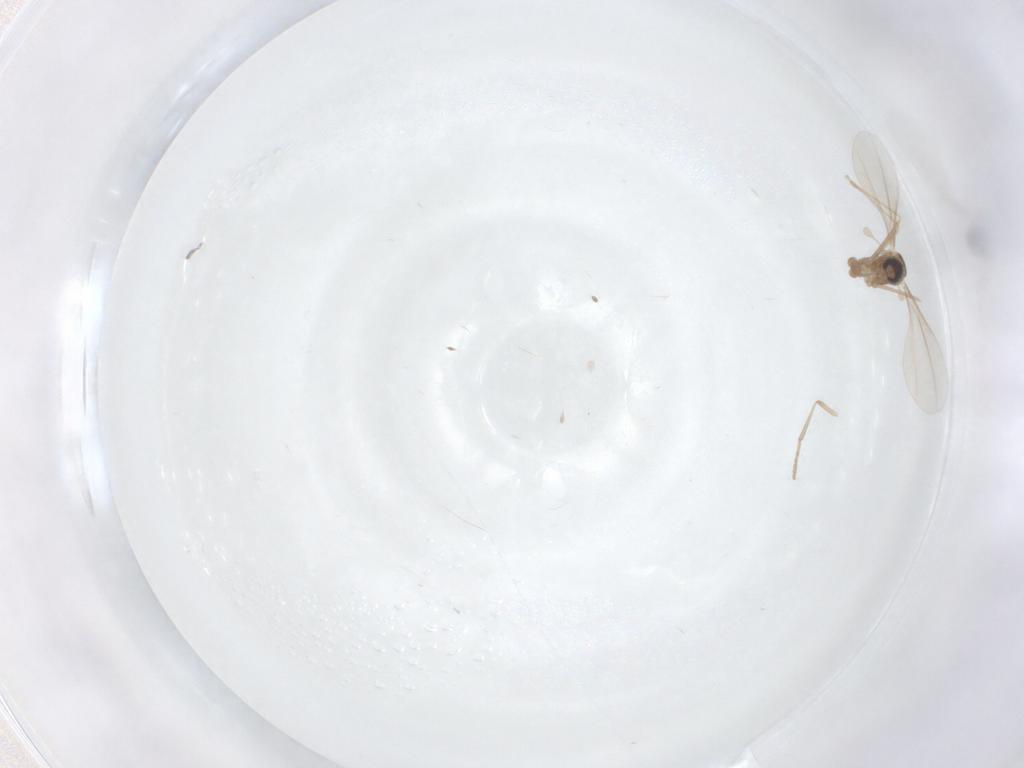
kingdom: Animalia
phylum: Arthropoda
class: Insecta
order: Diptera
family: Cecidomyiidae
